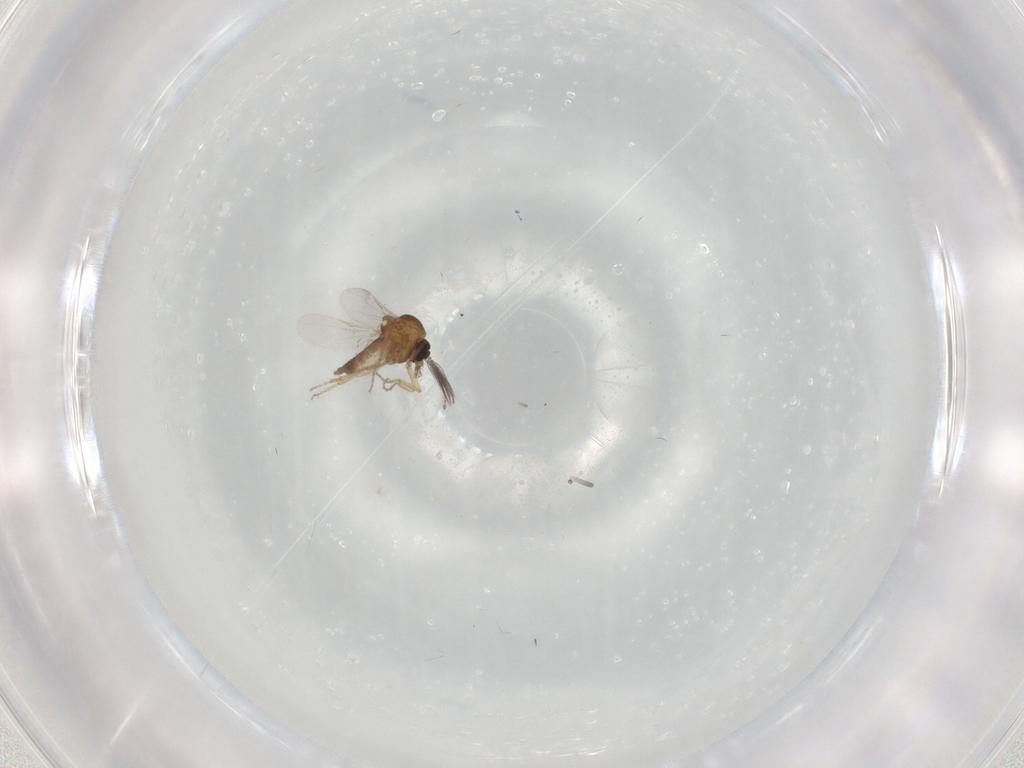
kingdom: Animalia
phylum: Arthropoda
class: Insecta
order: Diptera
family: Ceratopogonidae
